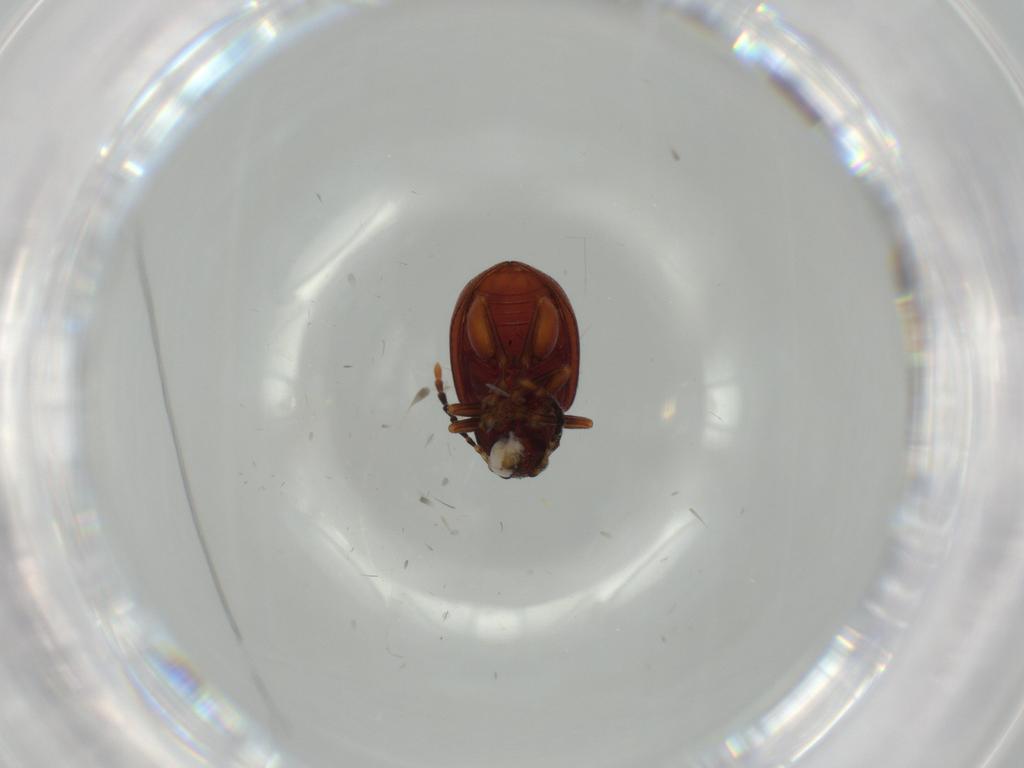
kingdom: Animalia
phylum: Arthropoda
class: Insecta
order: Coleoptera
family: Chrysomelidae
